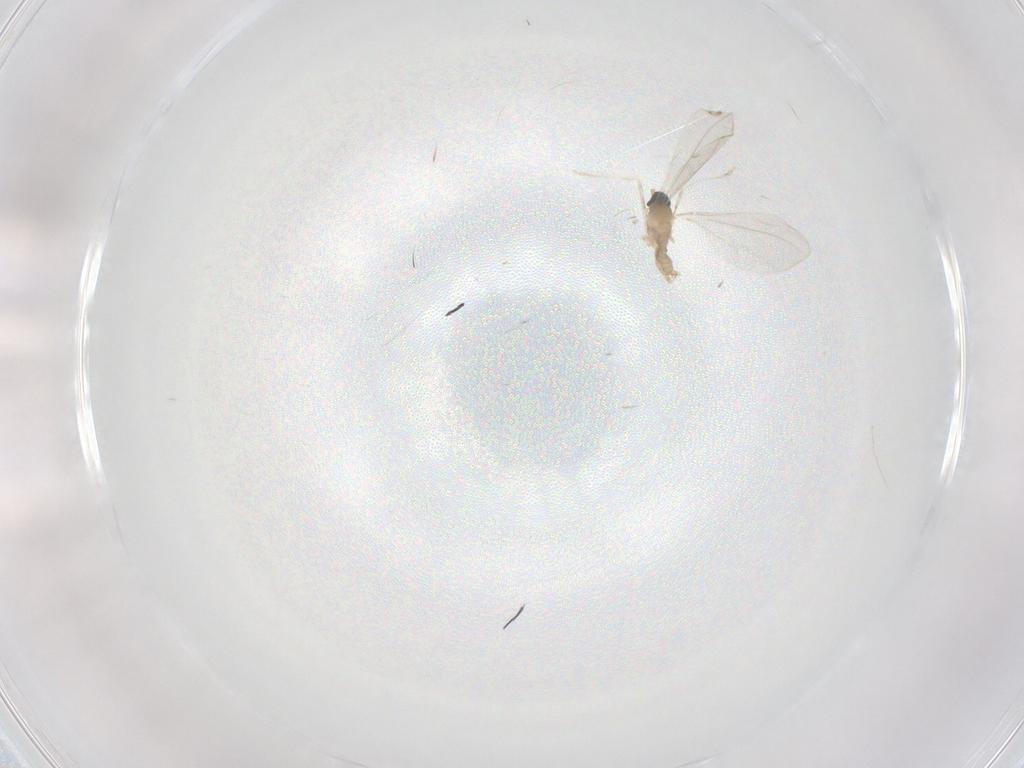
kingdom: Animalia
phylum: Arthropoda
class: Insecta
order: Diptera
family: Cecidomyiidae
